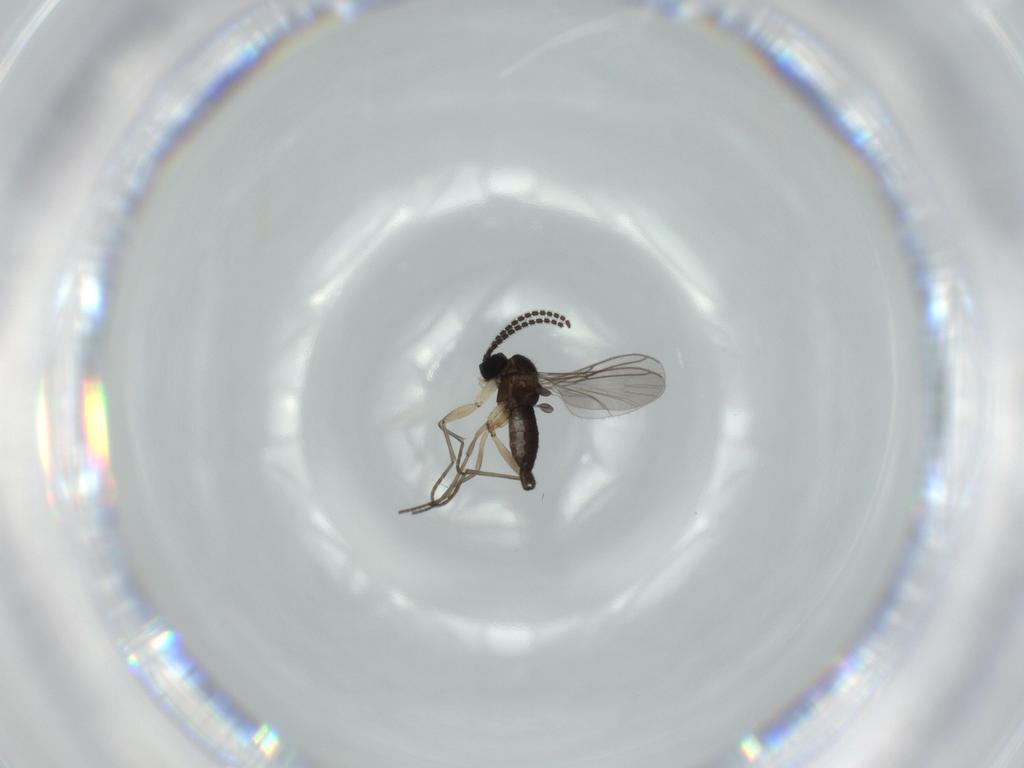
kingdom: Animalia
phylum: Arthropoda
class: Insecta
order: Diptera
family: Sciaridae
